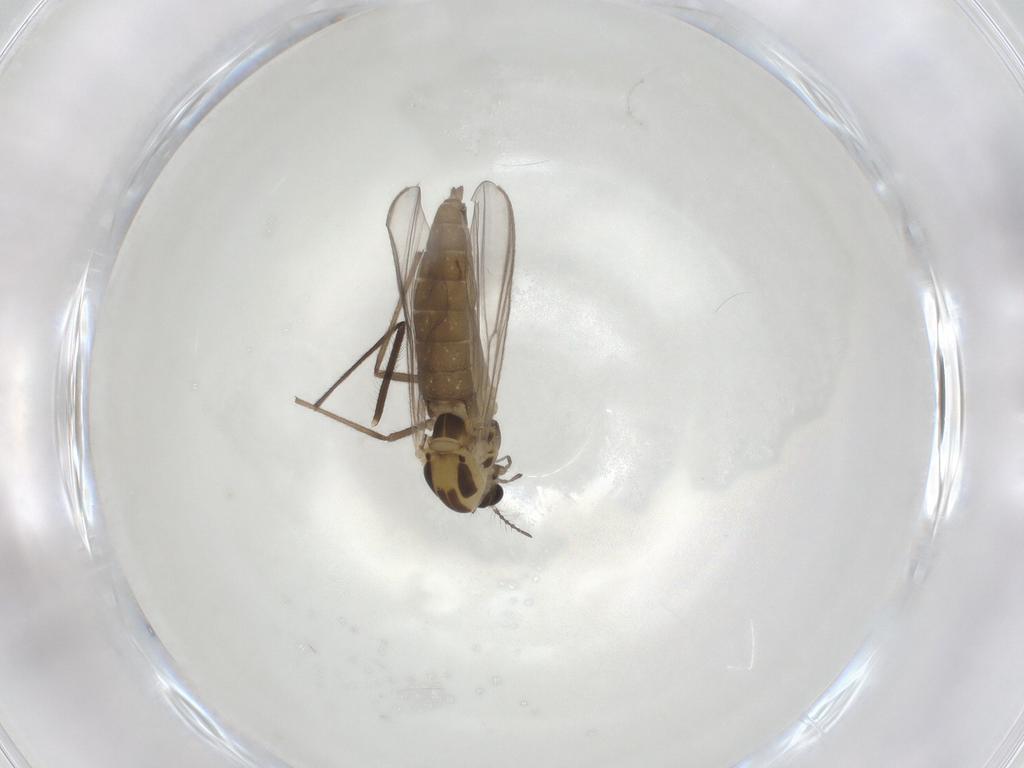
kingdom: Animalia
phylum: Arthropoda
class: Insecta
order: Diptera
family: Chironomidae
